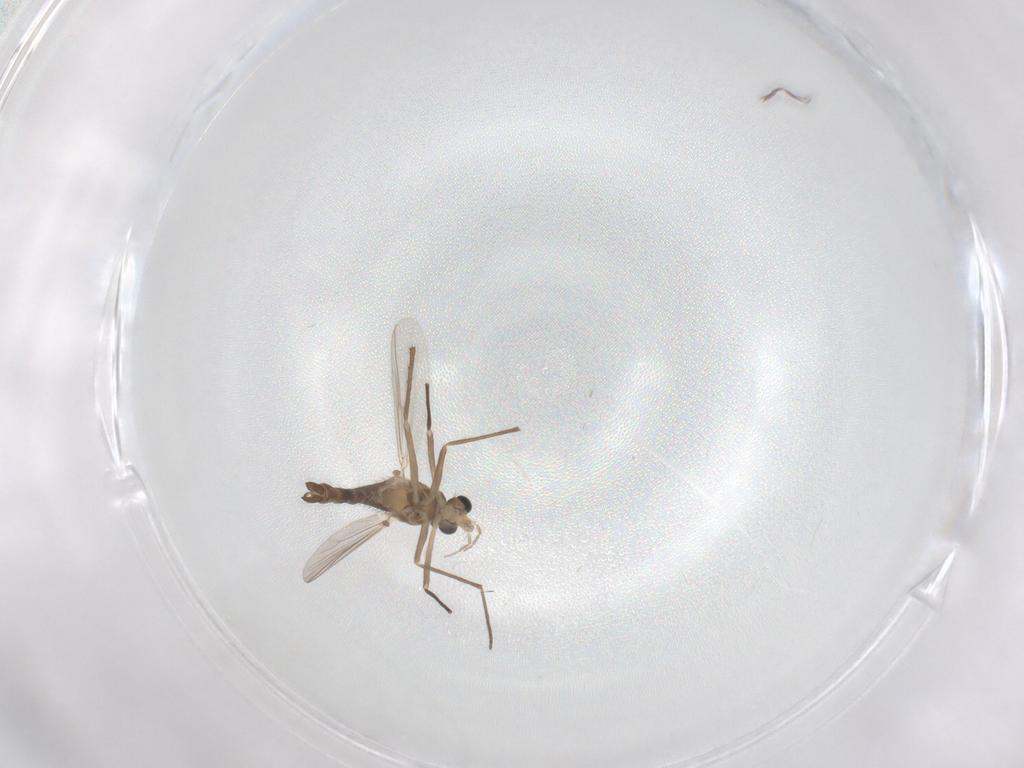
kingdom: Animalia
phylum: Arthropoda
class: Insecta
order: Diptera
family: Chironomidae
